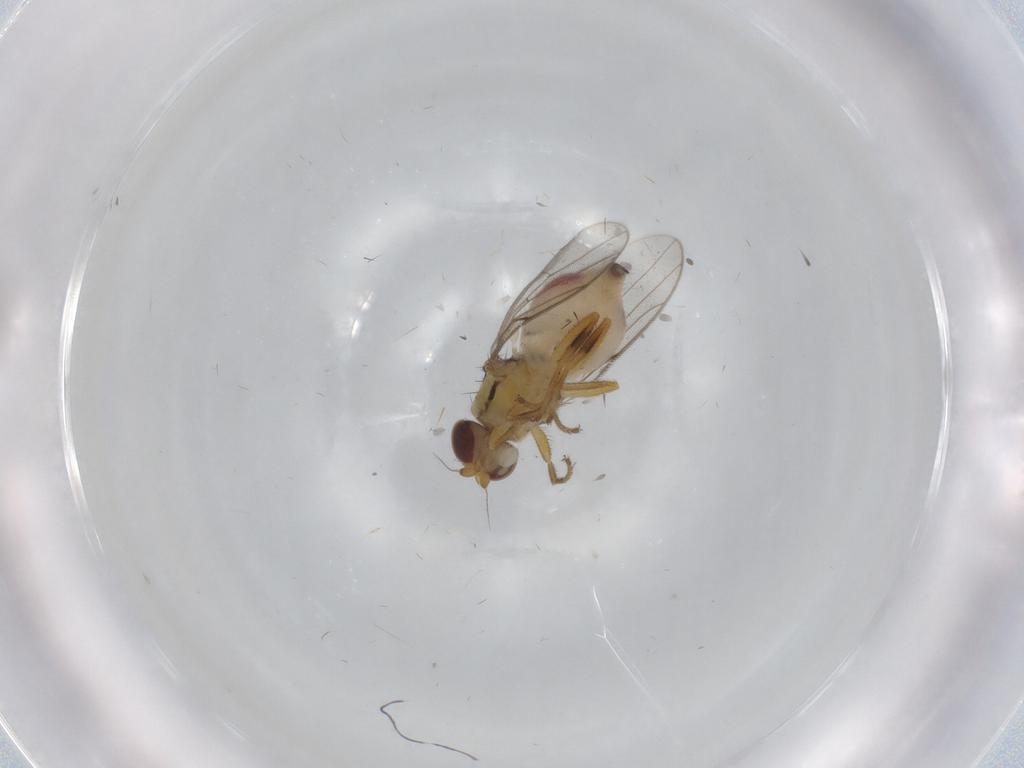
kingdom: Animalia
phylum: Arthropoda
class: Insecta
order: Diptera
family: Chloropidae
